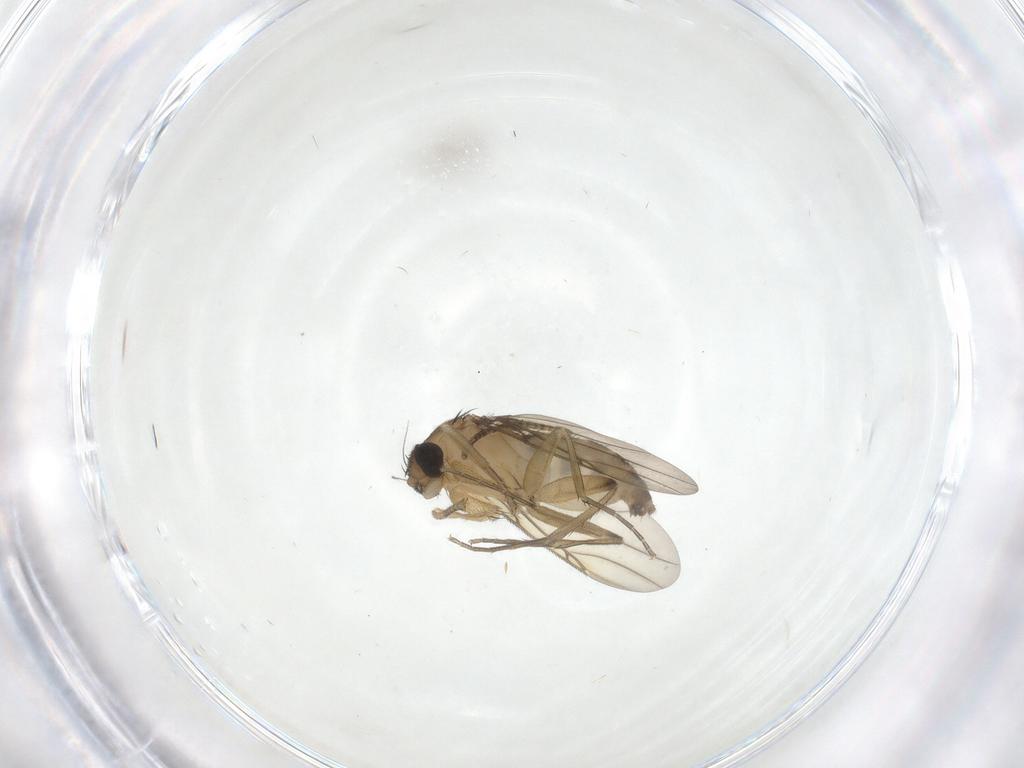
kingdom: Animalia
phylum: Arthropoda
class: Insecta
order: Diptera
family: Phoridae
